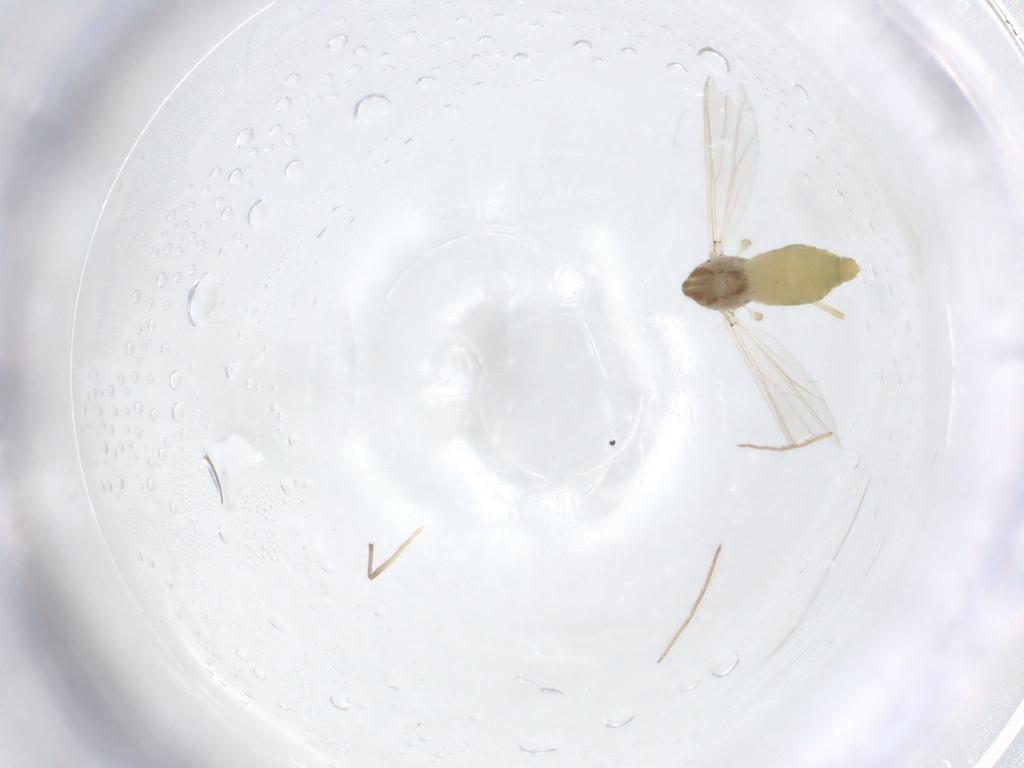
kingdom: Animalia
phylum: Arthropoda
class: Insecta
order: Diptera
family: Chironomidae
